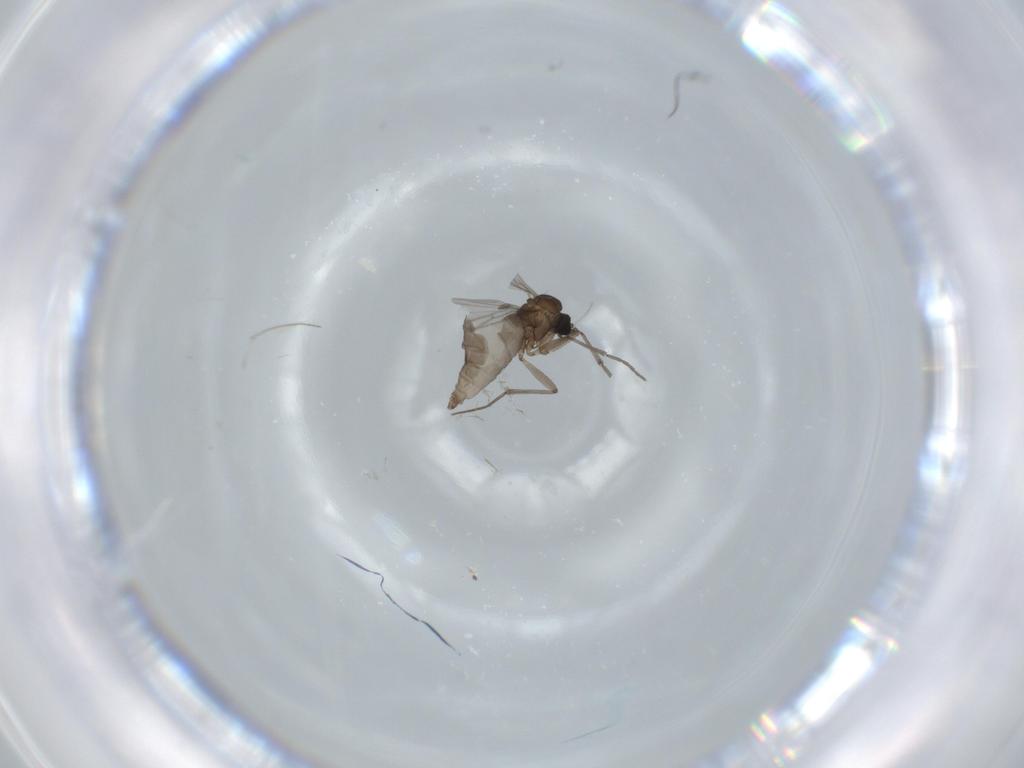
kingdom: Animalia
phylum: Arthropoda
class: Insecta
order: Diptera
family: Sciaridae
